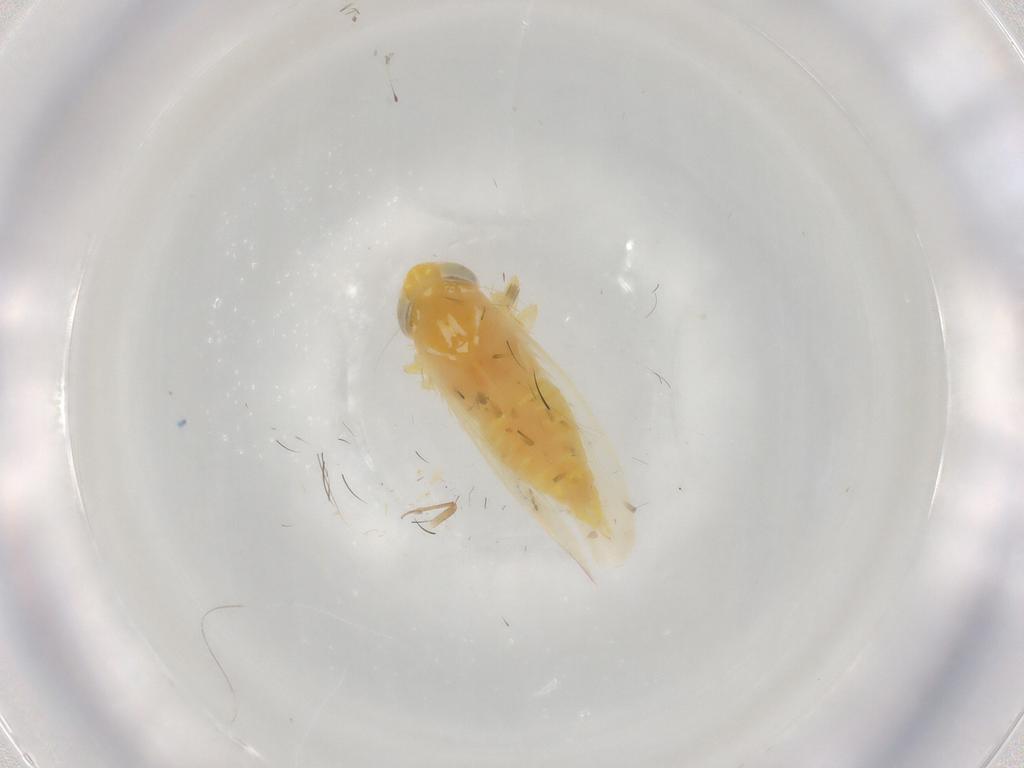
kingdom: Animalia
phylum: Arthropoda
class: Insecta
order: Hemiptera
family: Cicadellidae
